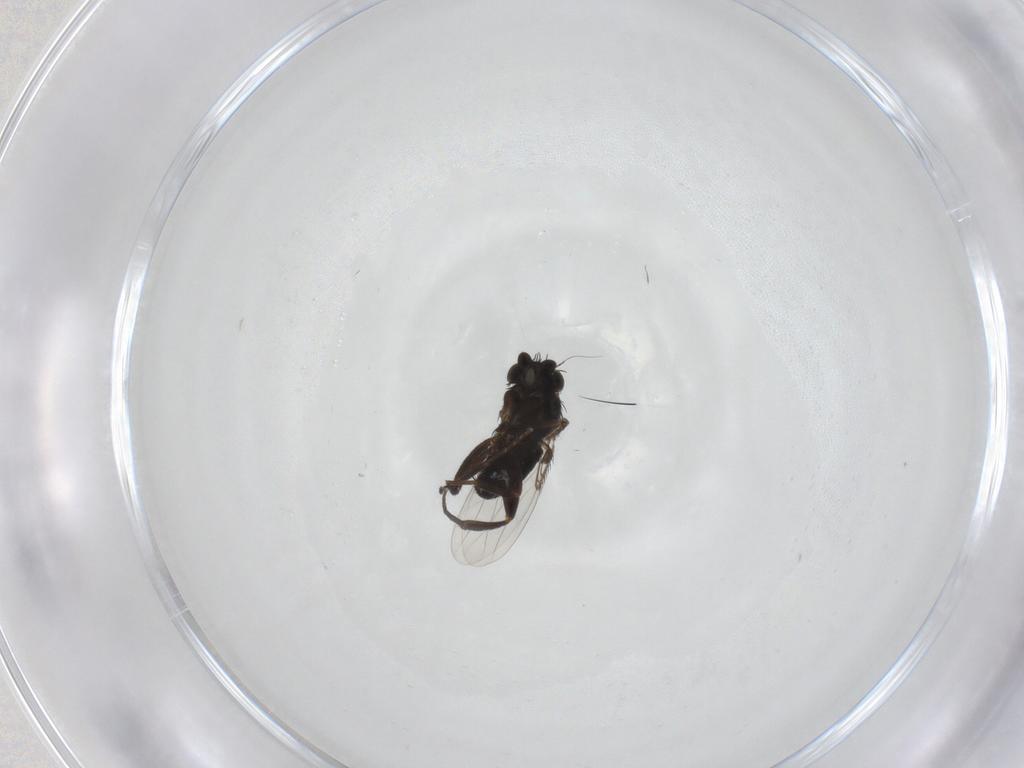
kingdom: Animalia
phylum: Arthropoda
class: Insecta
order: Diptera
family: Phoridae
